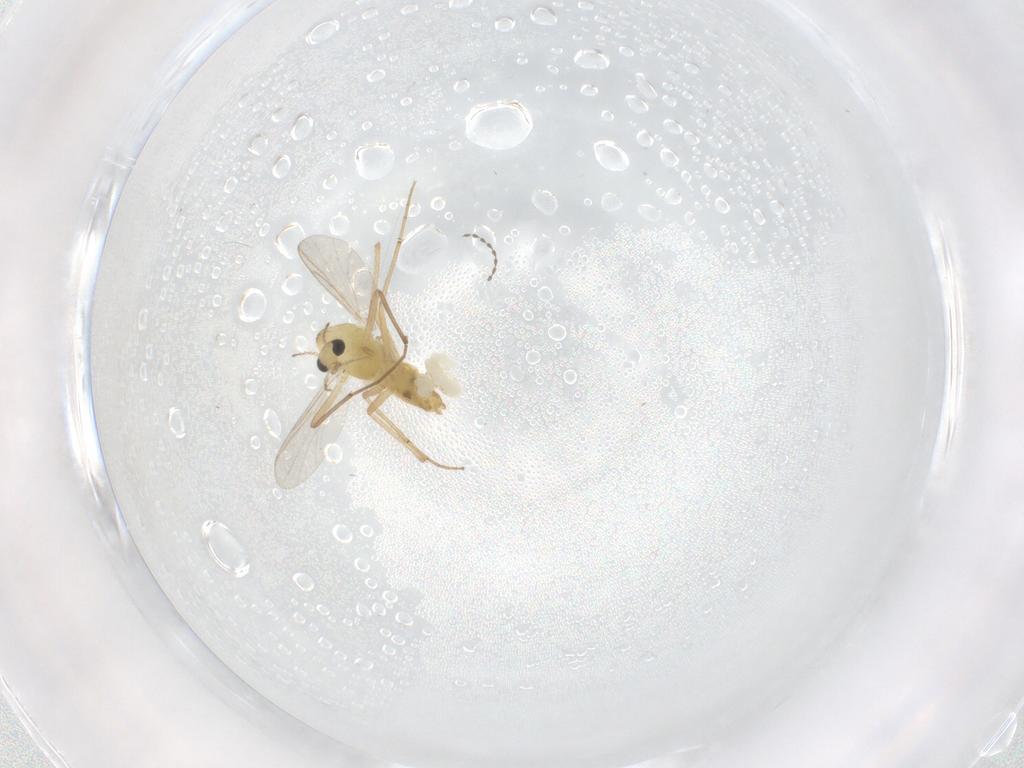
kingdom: Animalia
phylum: Arthropoda
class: Insecta
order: Diptera
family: Chironomidae
